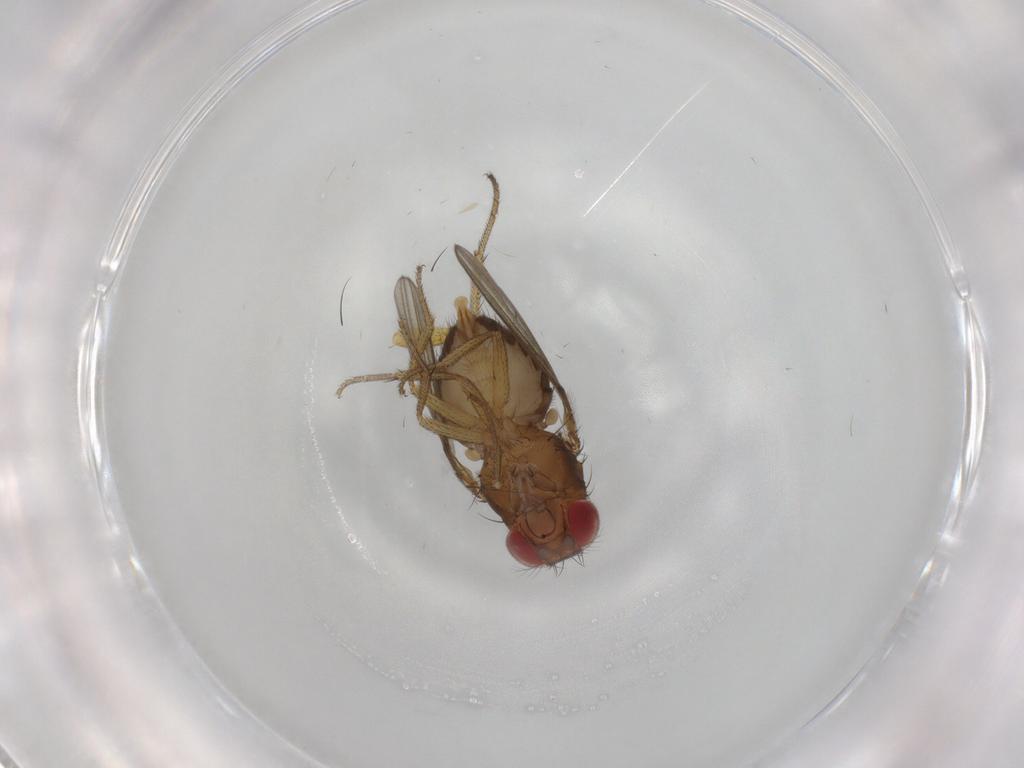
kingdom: Animalia
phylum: Arthropoda
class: Insecta
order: Diptera
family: Drosophilidae
